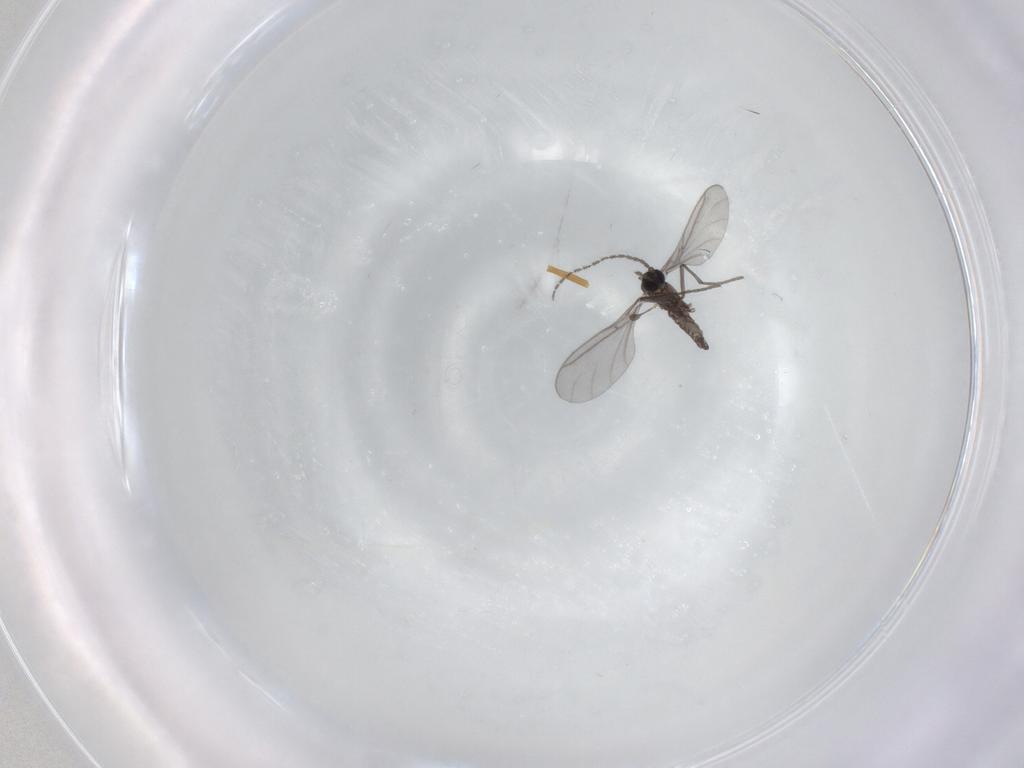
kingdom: Animalia
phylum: Arthropoda
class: Insecta
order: Diptera
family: Sciaridae
